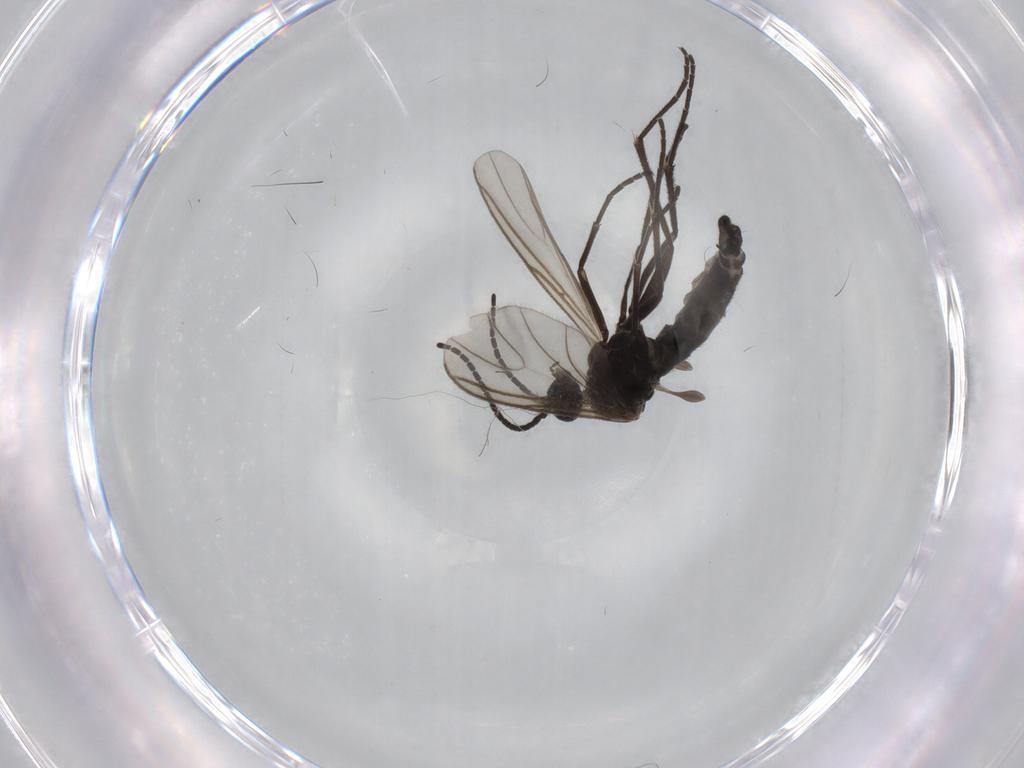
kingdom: Animalia
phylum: Arthropoda
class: Insecta
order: Diptera
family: Sciaridae
